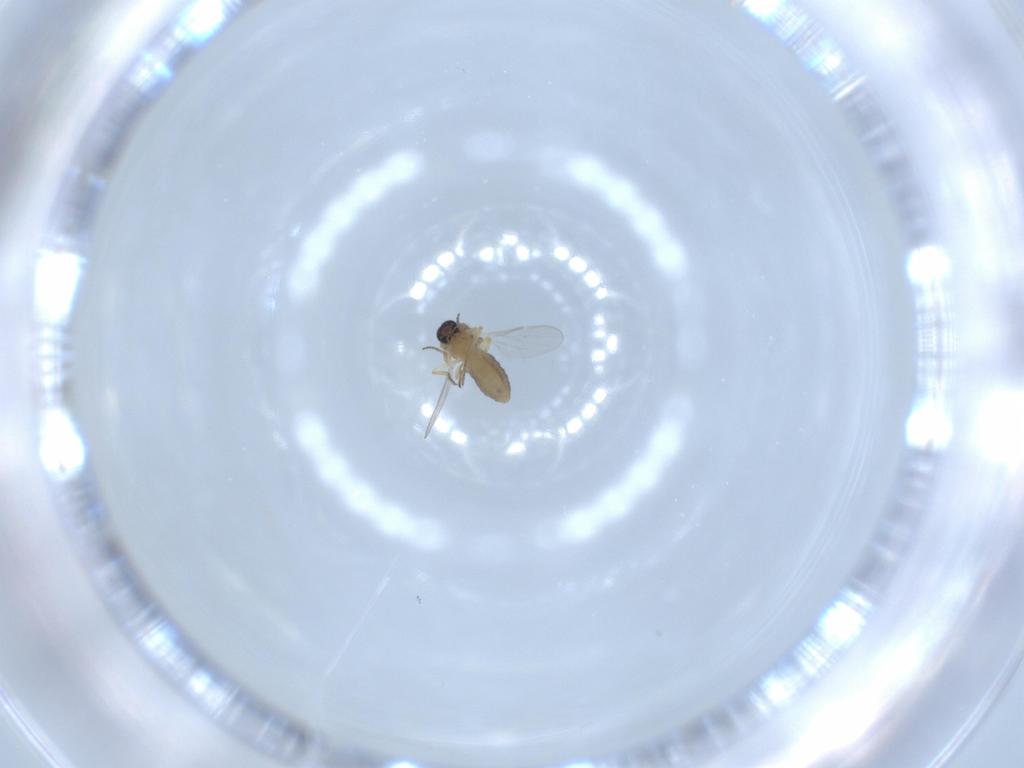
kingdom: Animalia
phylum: Arthropoda
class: Insecta
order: Diptera
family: Ceratopogonidae
